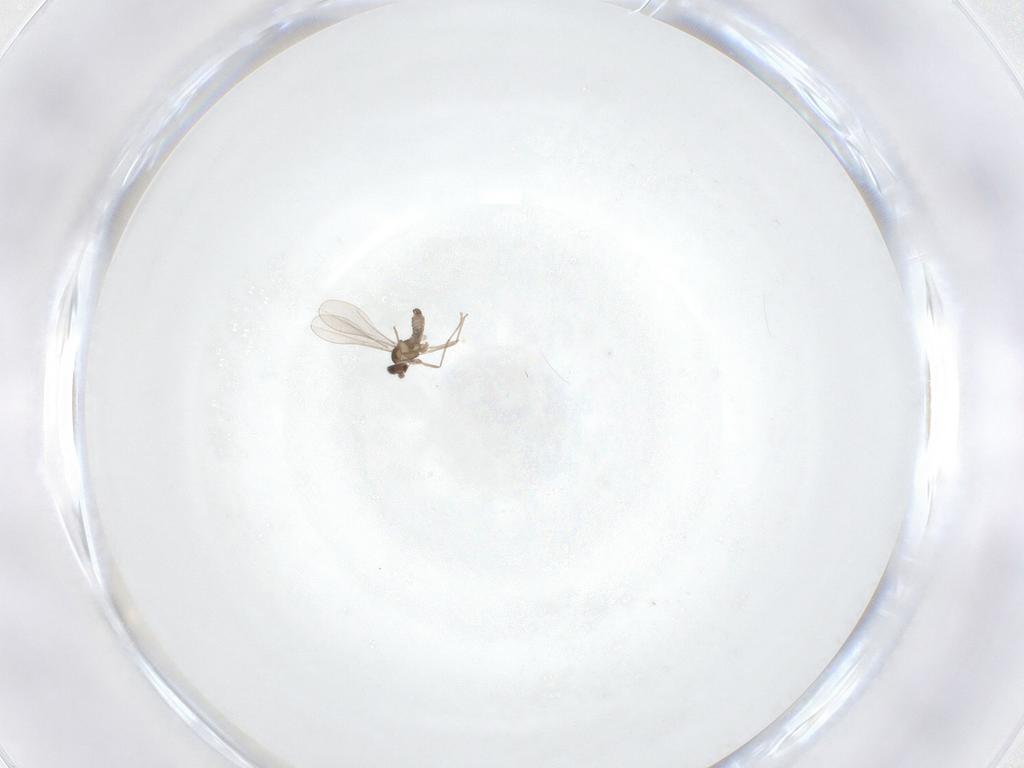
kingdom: Animalia
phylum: Arthropoda
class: Insecta
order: Diptera
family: Cecidomyiidae
